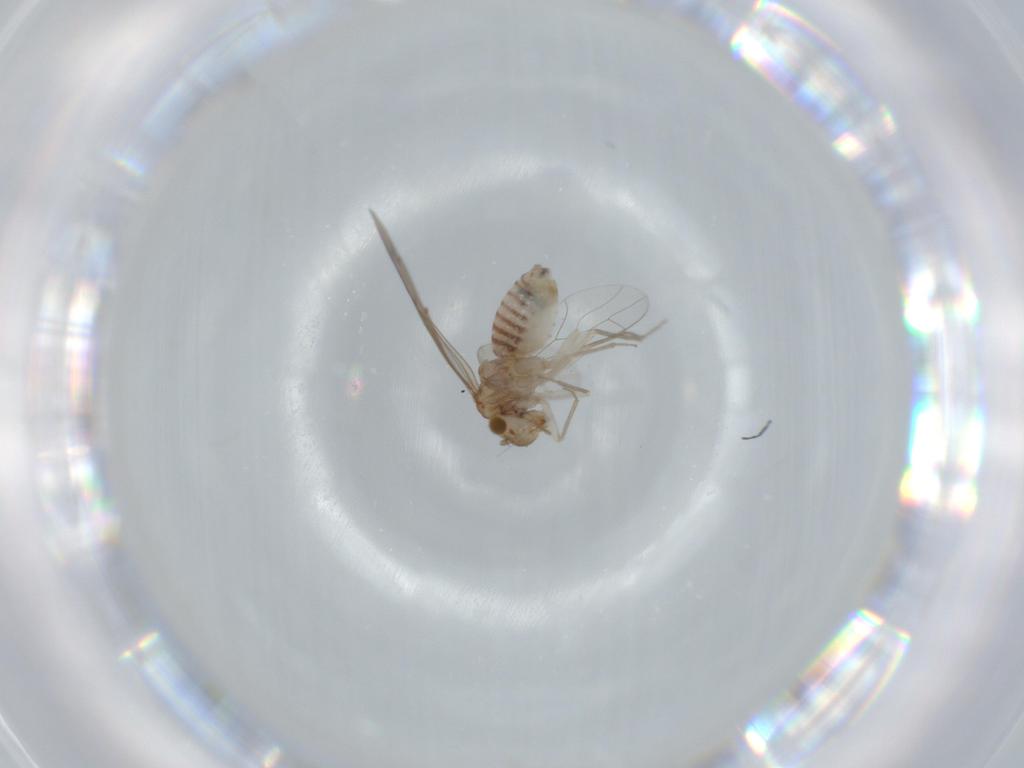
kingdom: Animalia
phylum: Arthropoda
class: Insecta
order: Psocodea
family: Lachesillidae
